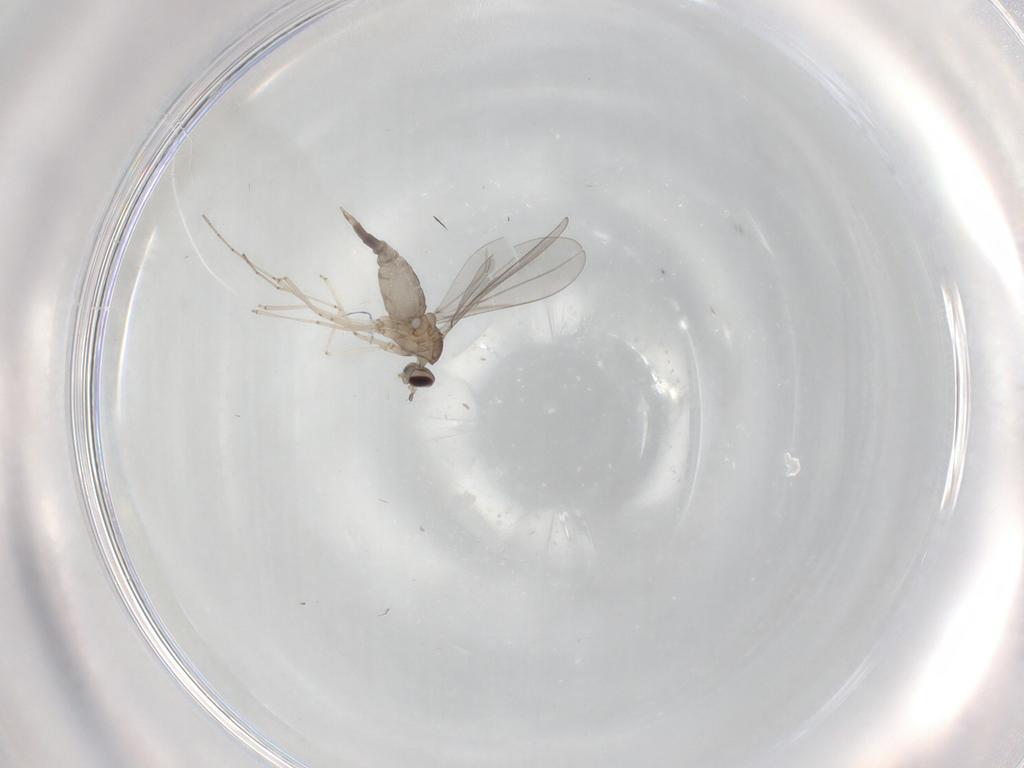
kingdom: Animalia
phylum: Arthropoda
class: Insecta
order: Diptera
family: Cecidomyiidae
